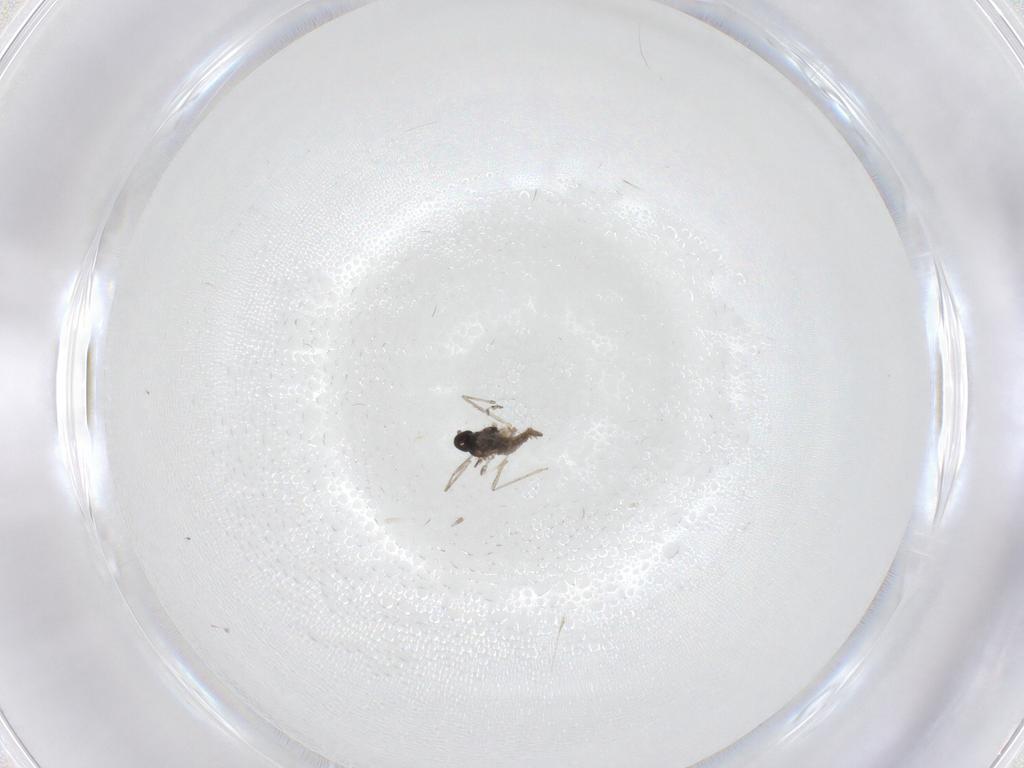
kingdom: Animalia
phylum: Arthropoda
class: Insecta
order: Diptera
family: Cecidomyiidae
